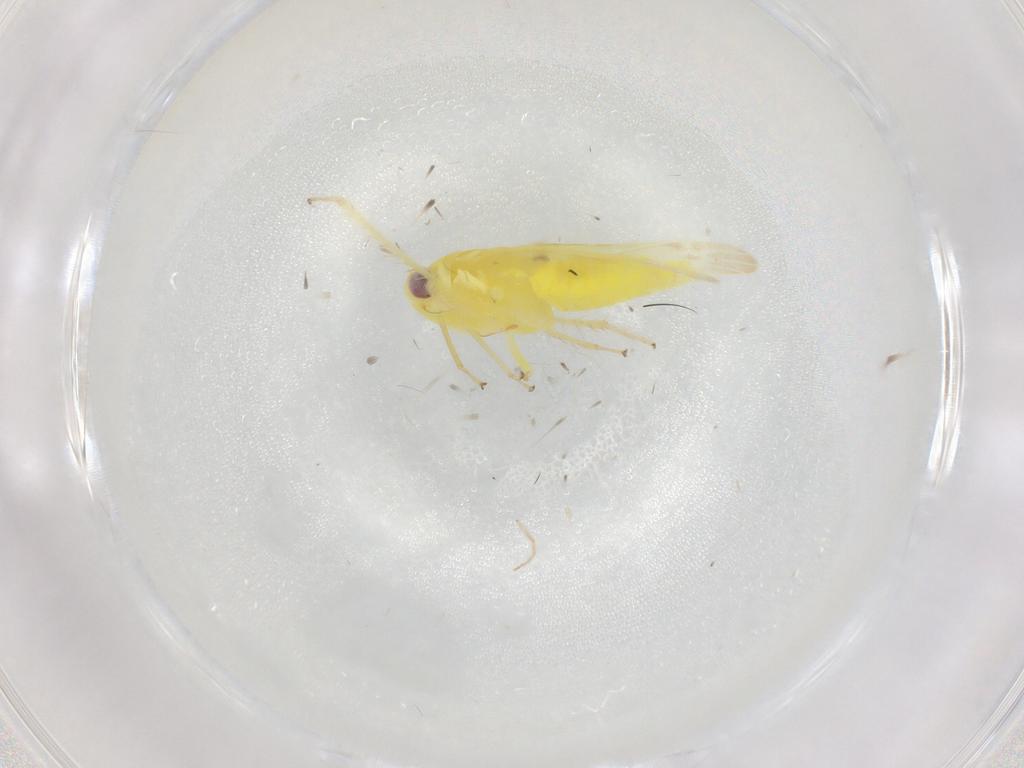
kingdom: Animalia
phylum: Arthropoda
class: Insecta
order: Hemiptera
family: Cicadellidae
